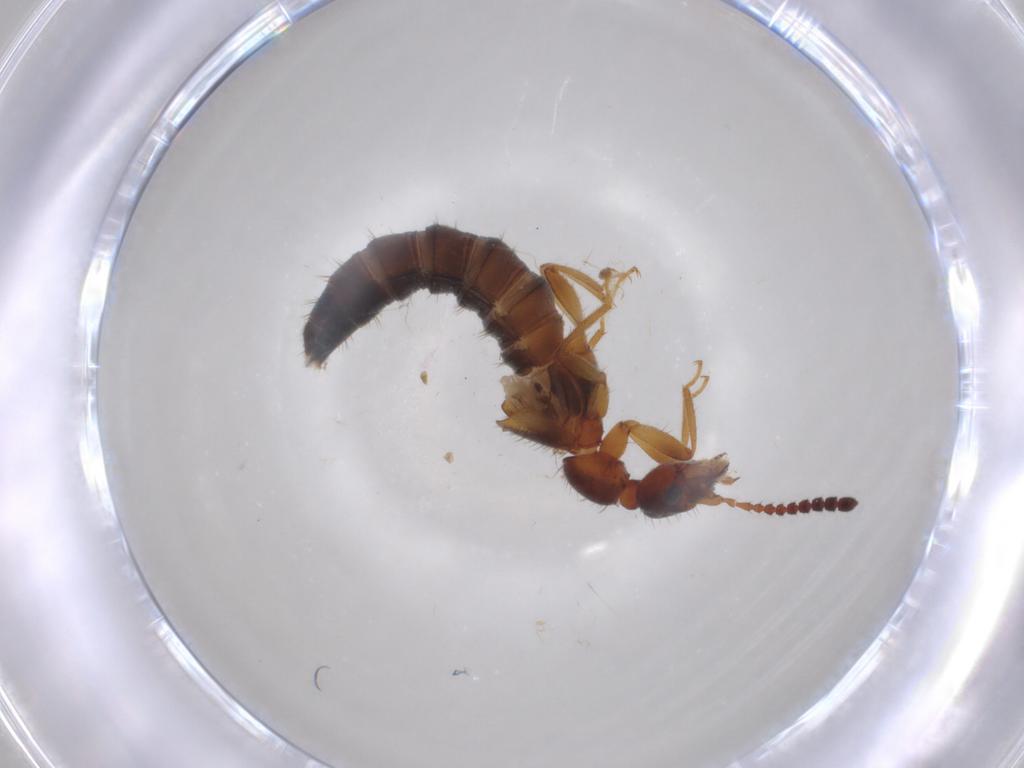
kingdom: Animalia
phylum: Arthropoda
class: Insecta
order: Coleoptera
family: Staphylinidae
